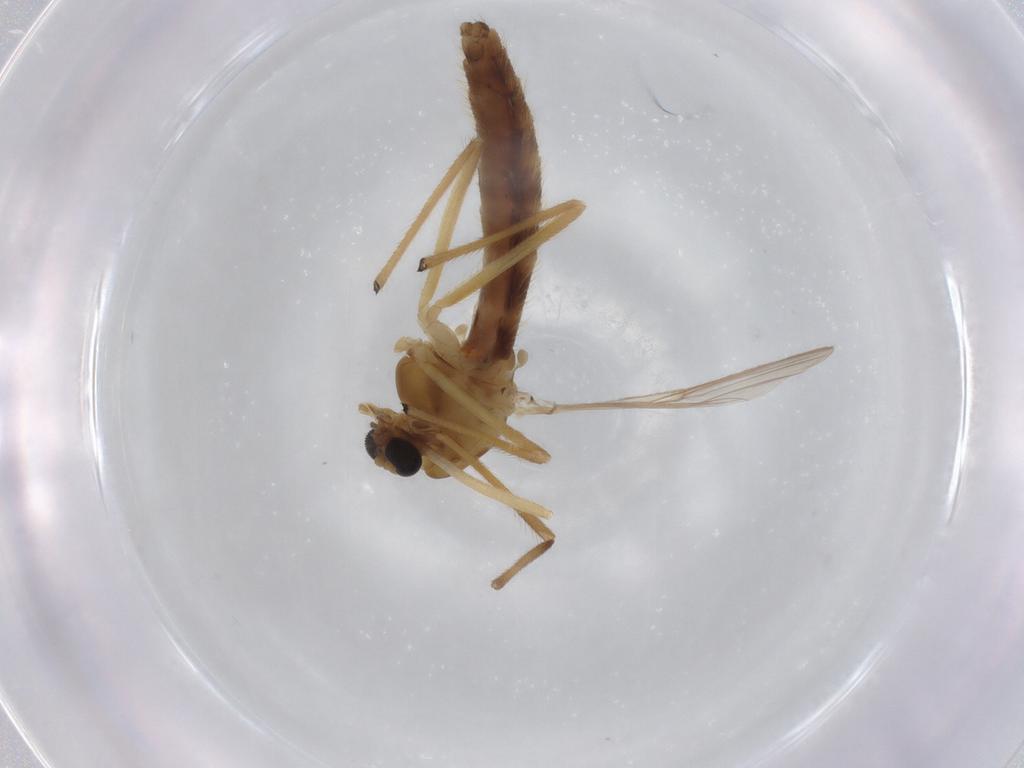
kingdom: Animalia
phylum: Arthropoda
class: Insecta
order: Diptera
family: Chironomidae
